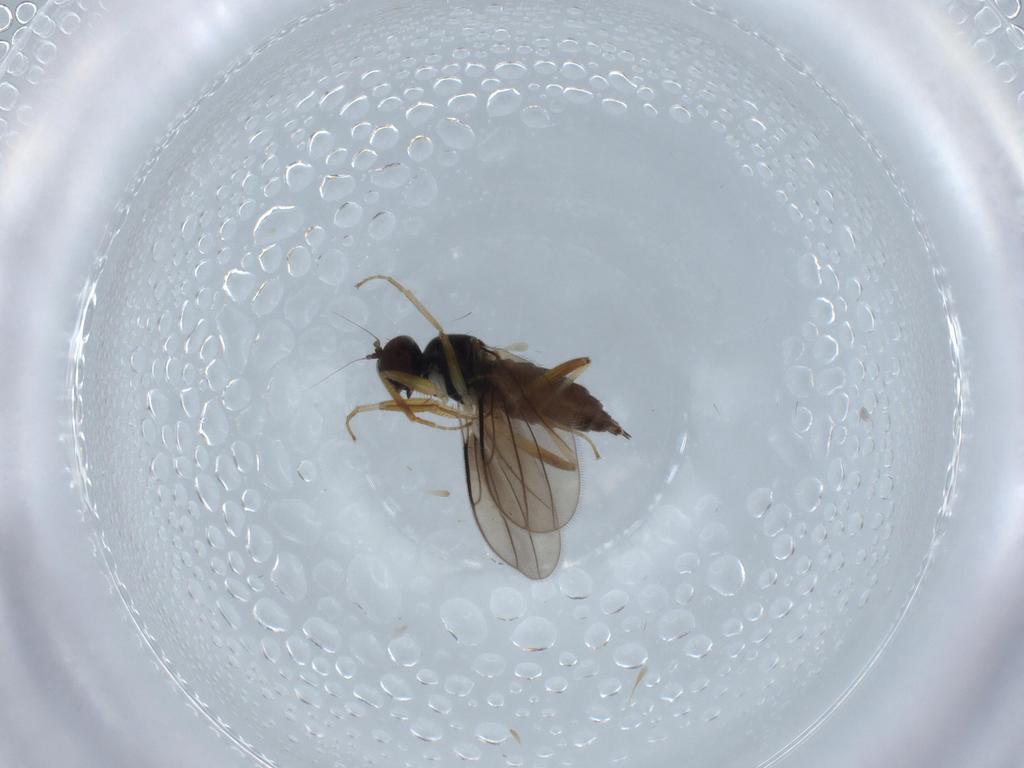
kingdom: Animalia
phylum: Arthropoda
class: Insecta
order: Diptera
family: Hybotidae
